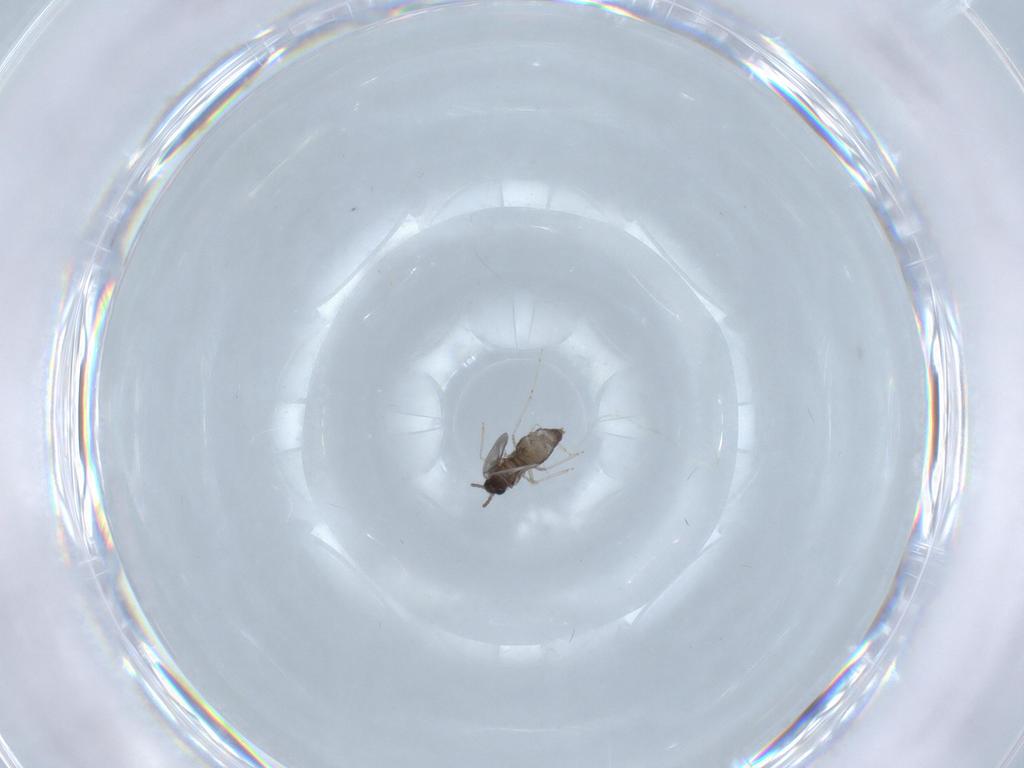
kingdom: Animalia
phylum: Arthropoda
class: Insecta
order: Diptera
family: Cecidomyiidae
